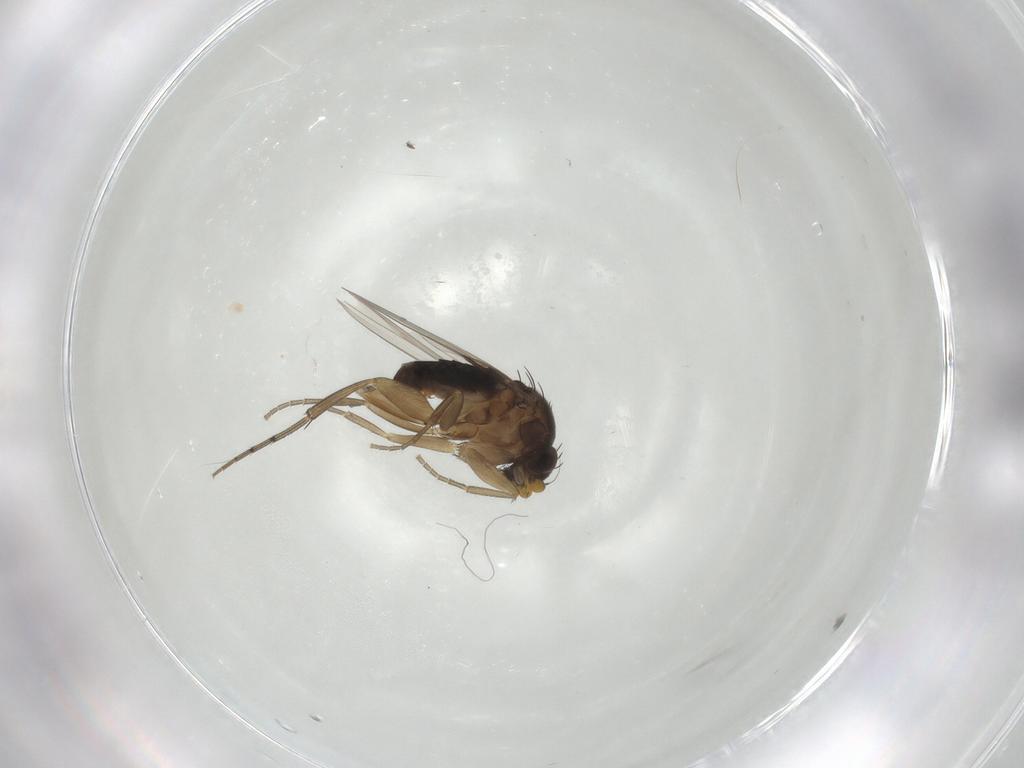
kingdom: Animalia
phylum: Arthropoda
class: Insecta
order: Diptera
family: Phoridae
